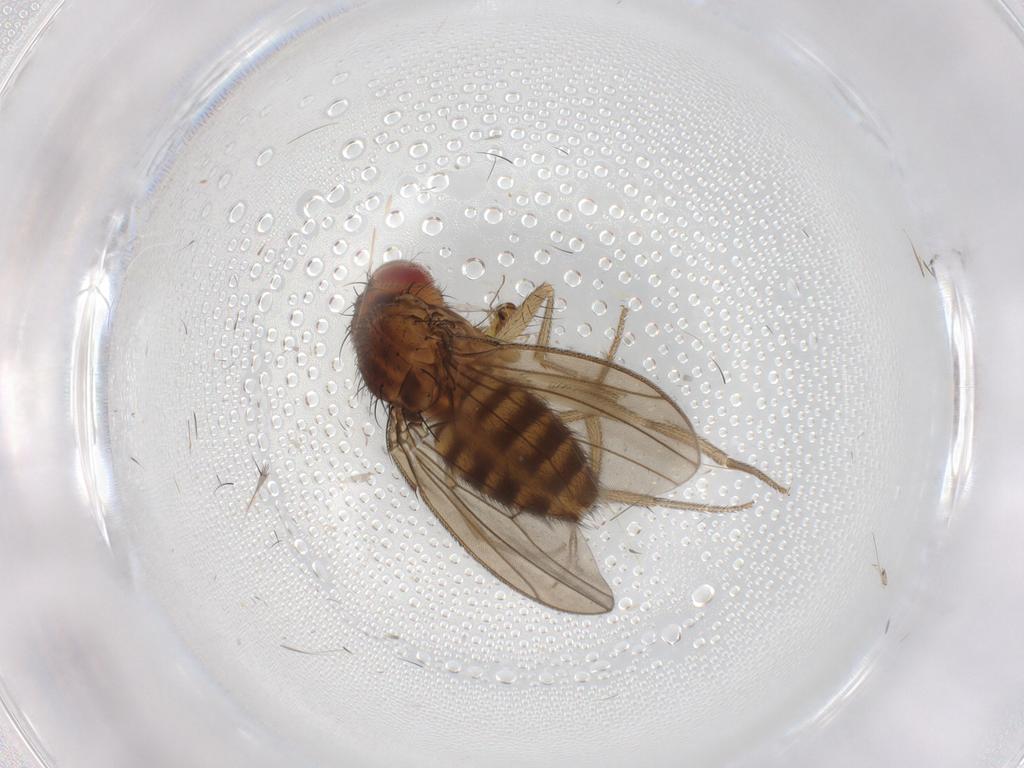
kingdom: Animalia
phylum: Arthropoda
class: Insecta
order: Diptera
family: Drosophilidae
